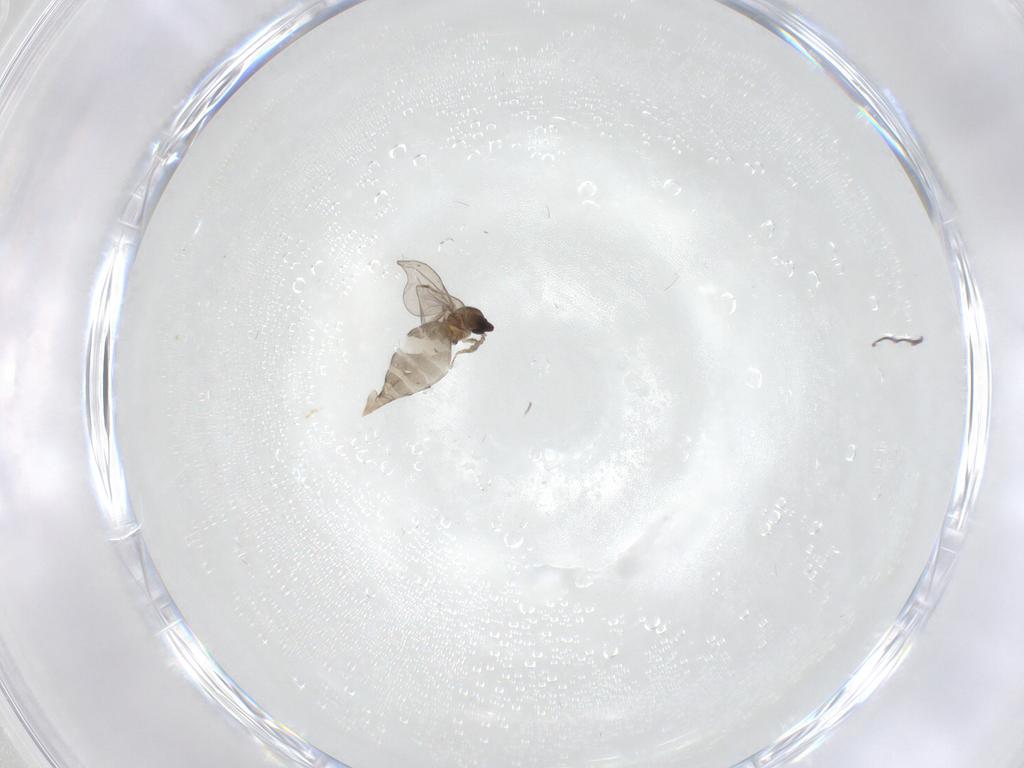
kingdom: Animalia
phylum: Arthropoda
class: Insecta
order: Diptera
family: Cecidomyiidae
